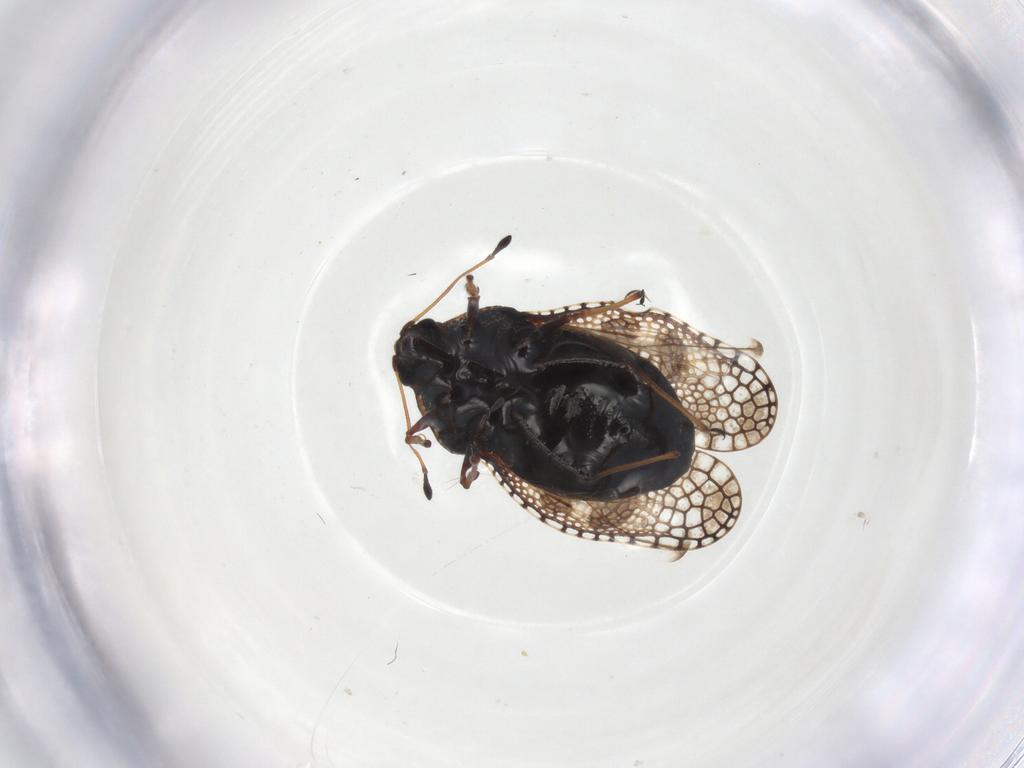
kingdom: Animalia
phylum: Arthropoda
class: Insecta
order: Hemiptera
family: Tingidae
